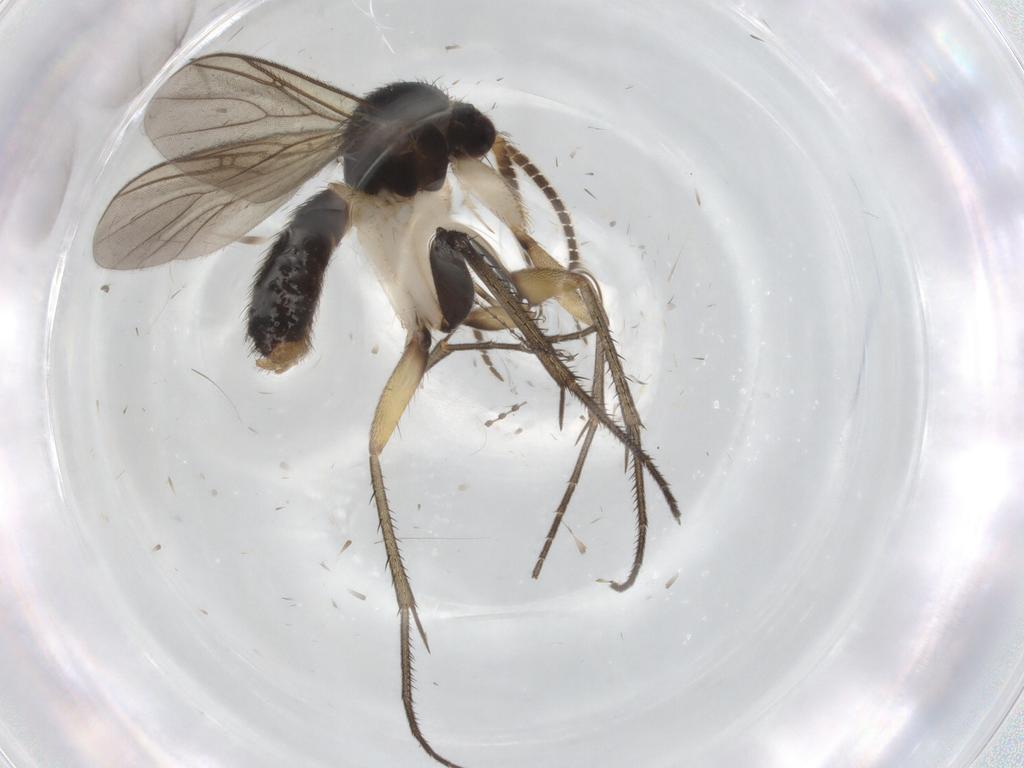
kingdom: Animalia
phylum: Arthropoda
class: Insecta
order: Diptera
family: Mycetophilidae
